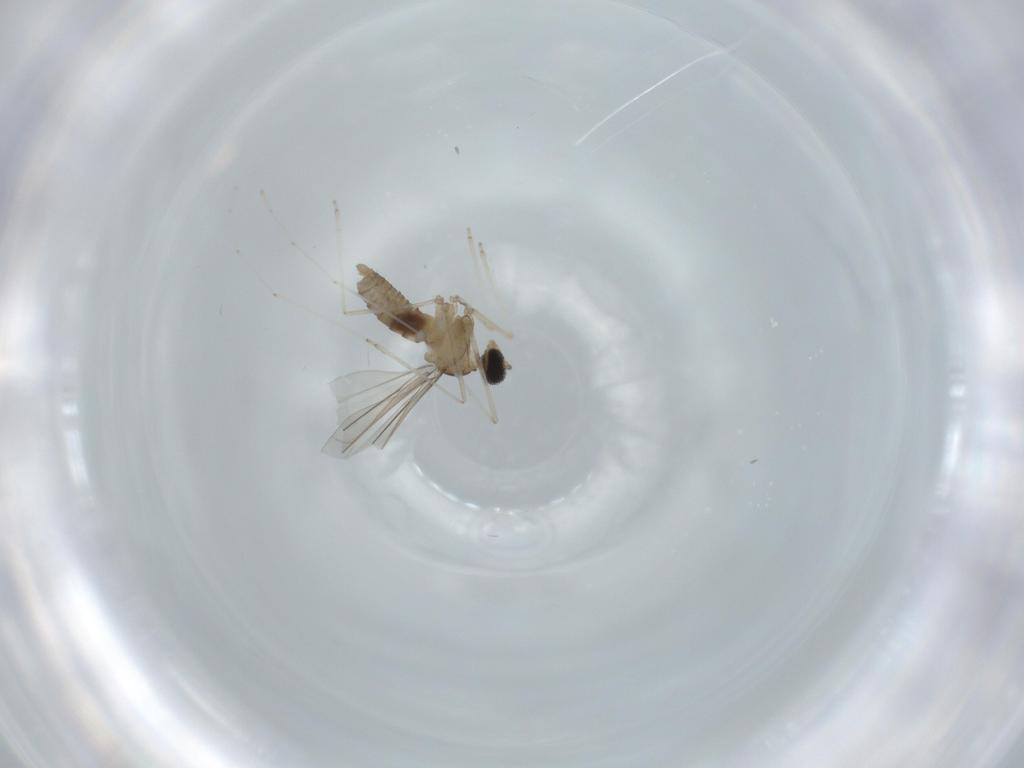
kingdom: Animalia
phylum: Arthropoda
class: Insecta
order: Diptera
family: Cecidomyiidae
